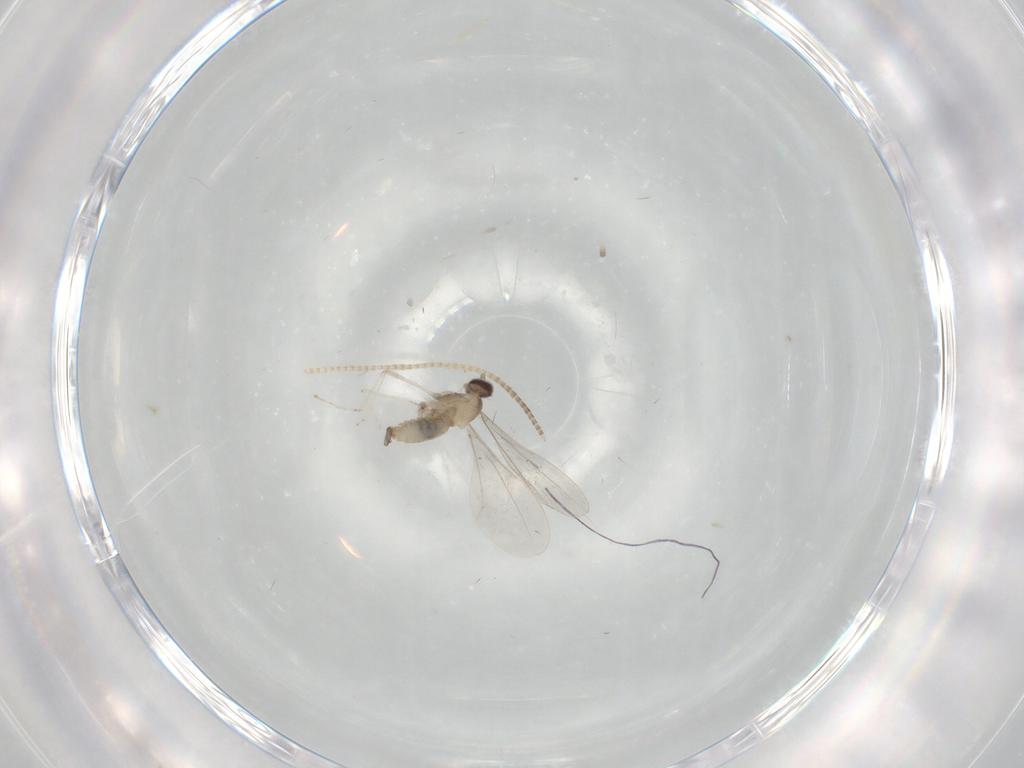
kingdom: Animalia
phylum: Arthropoda
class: Insecta
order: Diptera
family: Cecidomyiidae
